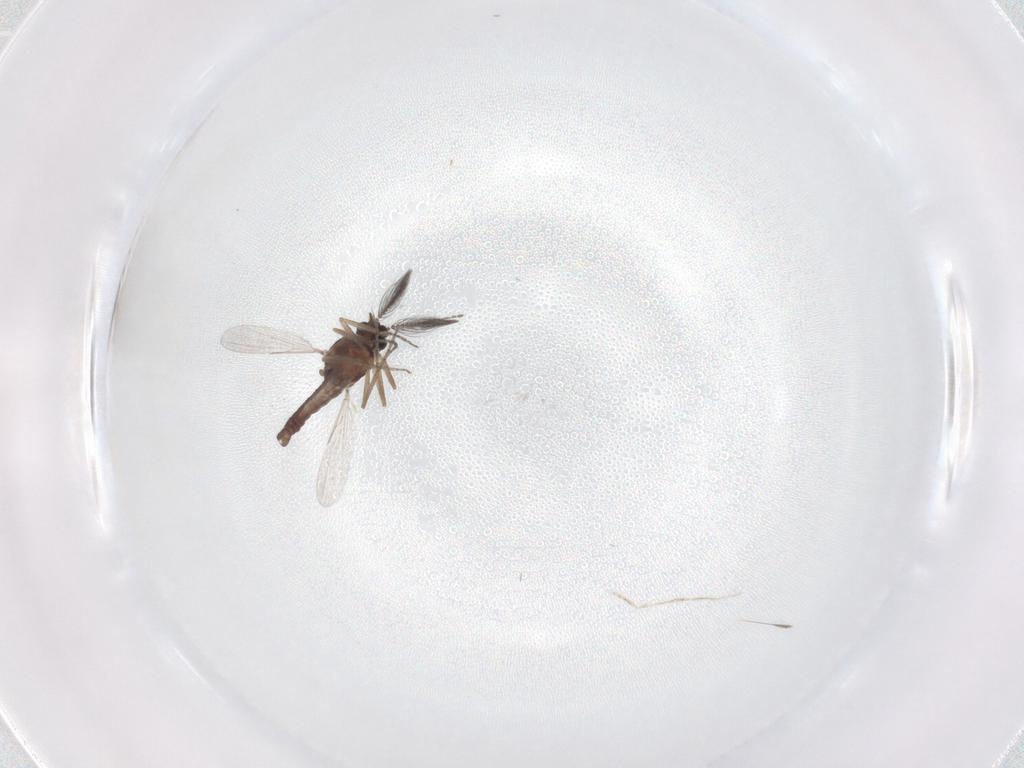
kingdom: Animalia
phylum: Arthropoda
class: Insecta
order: Diptera
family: Ceratopogonidae
